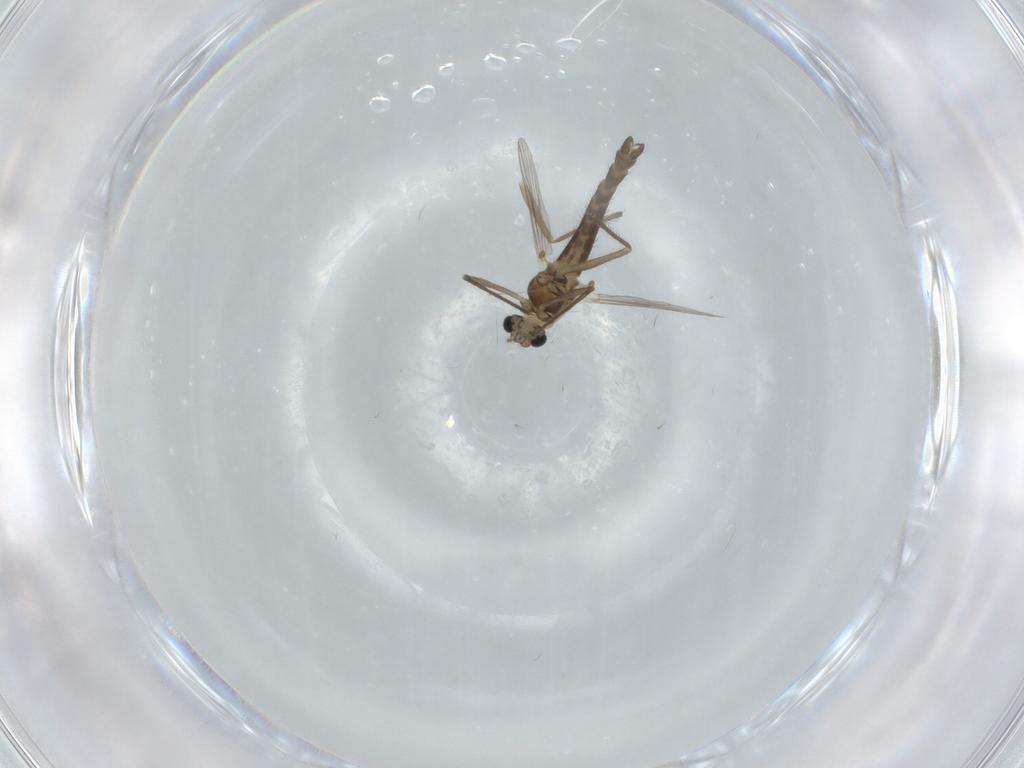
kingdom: Animalia
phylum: Arthropoda
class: Insecta
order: Diptera
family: Chironomidae
